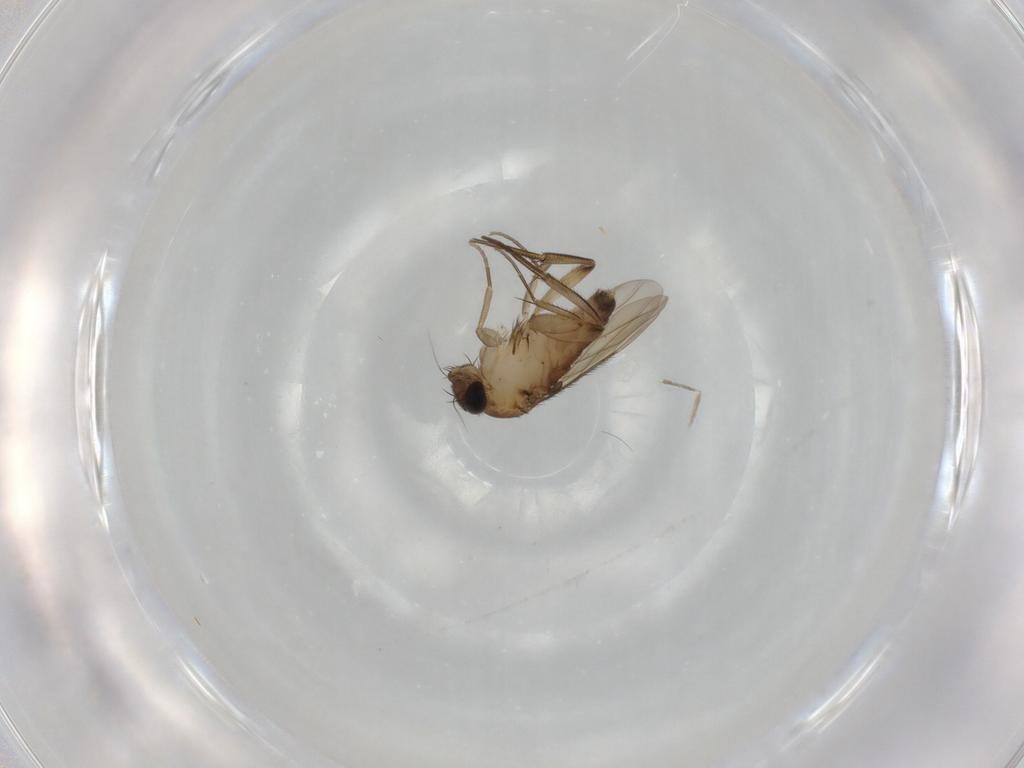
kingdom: Animalia
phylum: Arthropoda
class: Insecta
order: Diptera
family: Phoridae
